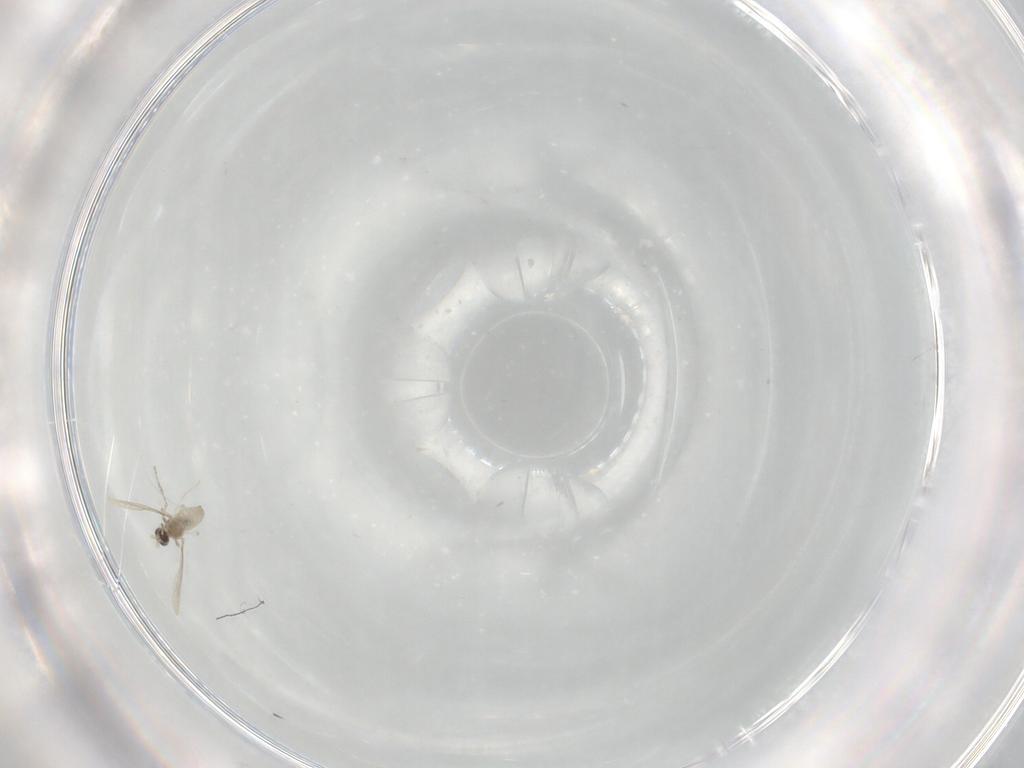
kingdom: Animalia
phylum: Arthropoda
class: Insecta
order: Diptera
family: Cecidomyiidae
